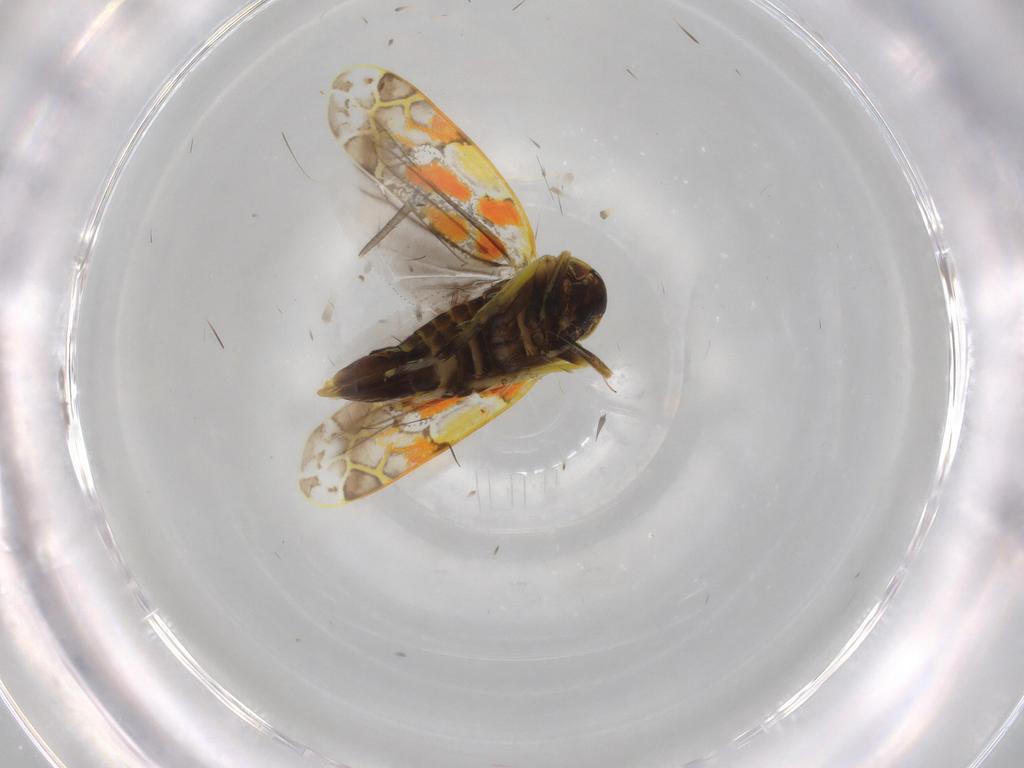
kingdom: Animalia
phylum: Arthropoda
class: Insecta
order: Hemiptera
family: Cicadellidae
